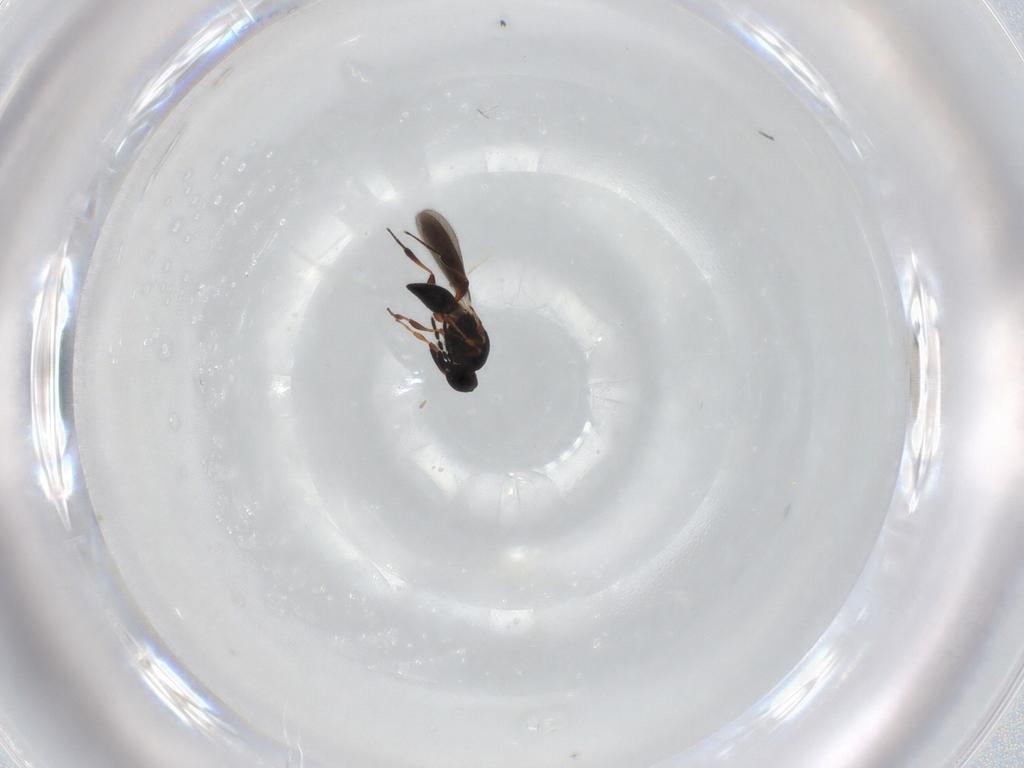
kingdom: Animalia
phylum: Arthropoda
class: Insecta
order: Hymenoptera
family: Platygastridae
